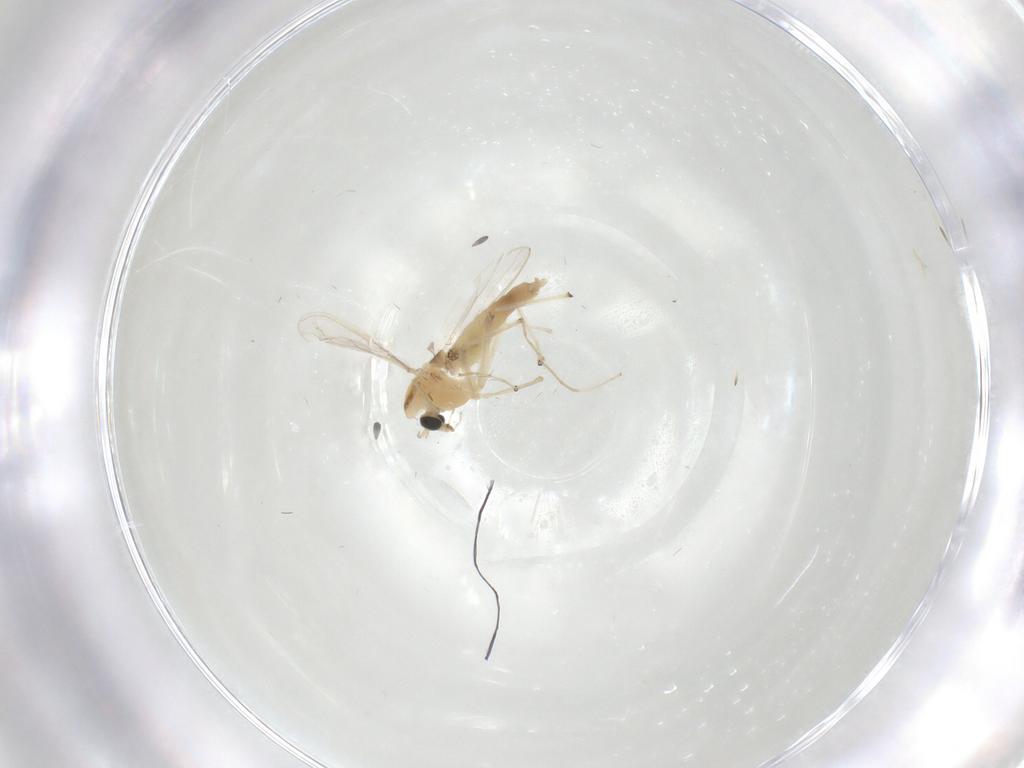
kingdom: Animalia
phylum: Arthropoda
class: Insecta
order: Diptera
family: Chironomidae
